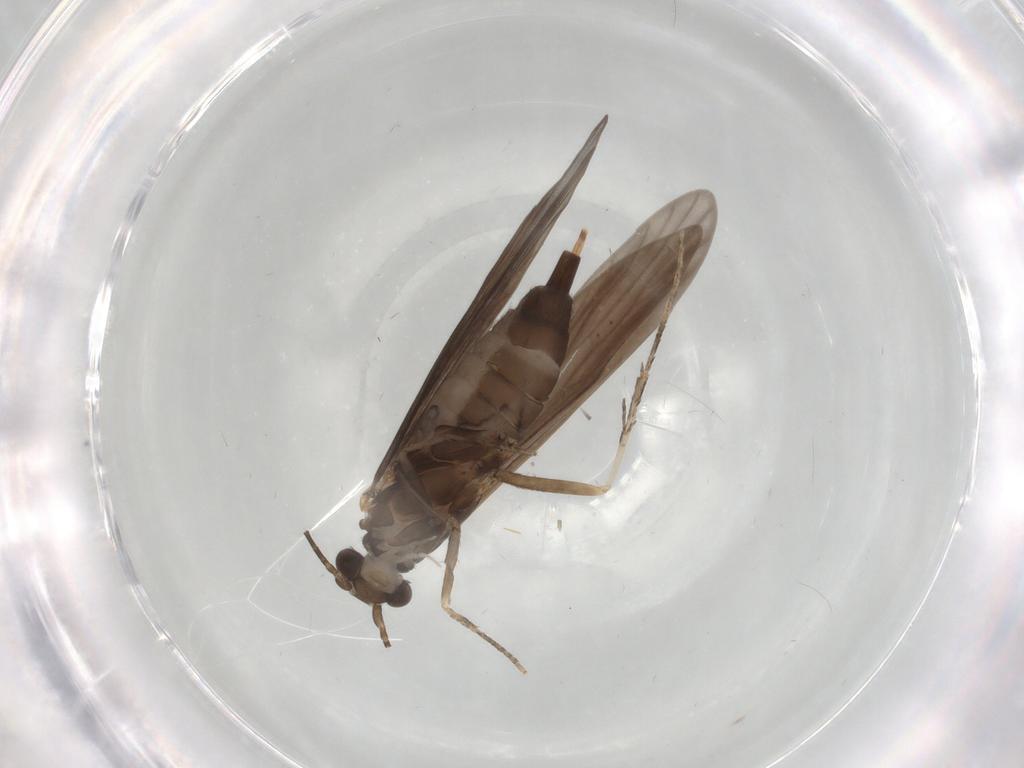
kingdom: Animalia
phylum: Arthropoda
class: Insecta
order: Trichoptera
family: Xiphocentronidae
